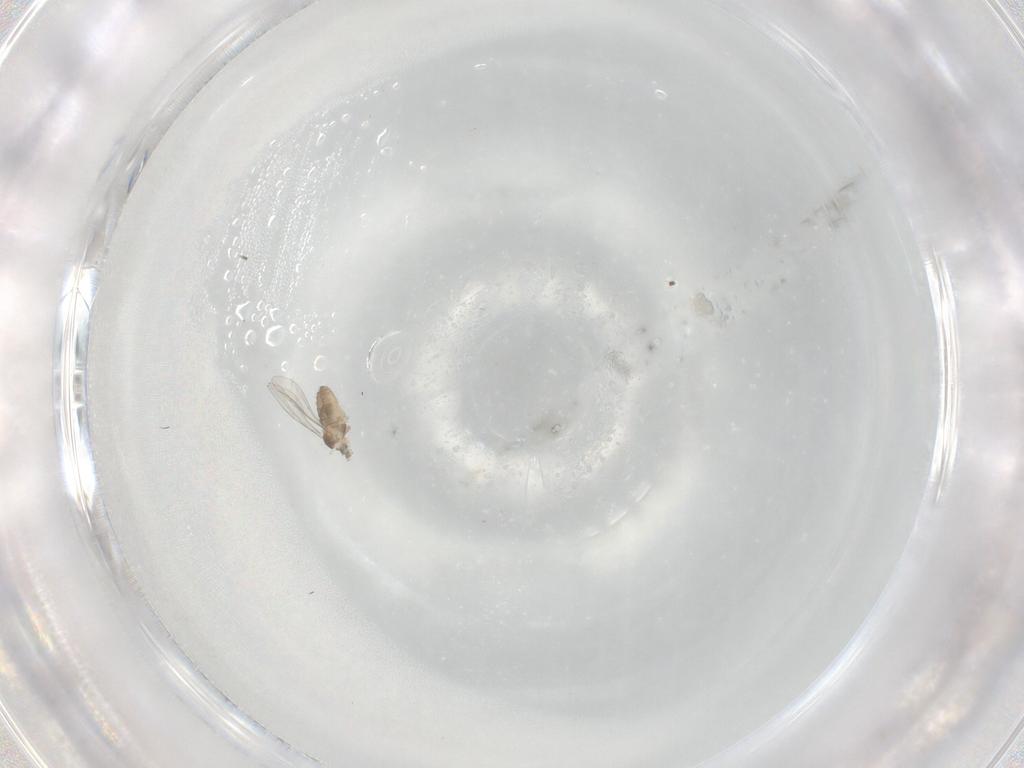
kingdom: Animalia
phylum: Arthropoda
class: Insecta
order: Diptera
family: Cecidomyiidae
